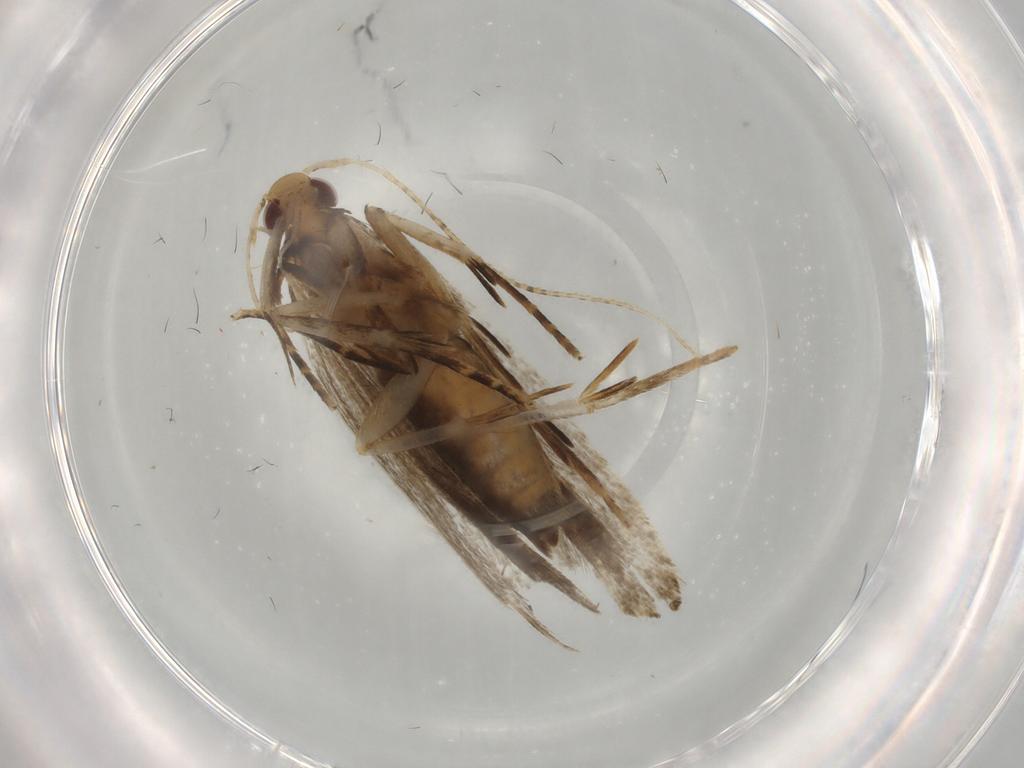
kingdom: Animalia
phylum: Arthropoda
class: Insecta
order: Lepidoptera
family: Gelechiidae
